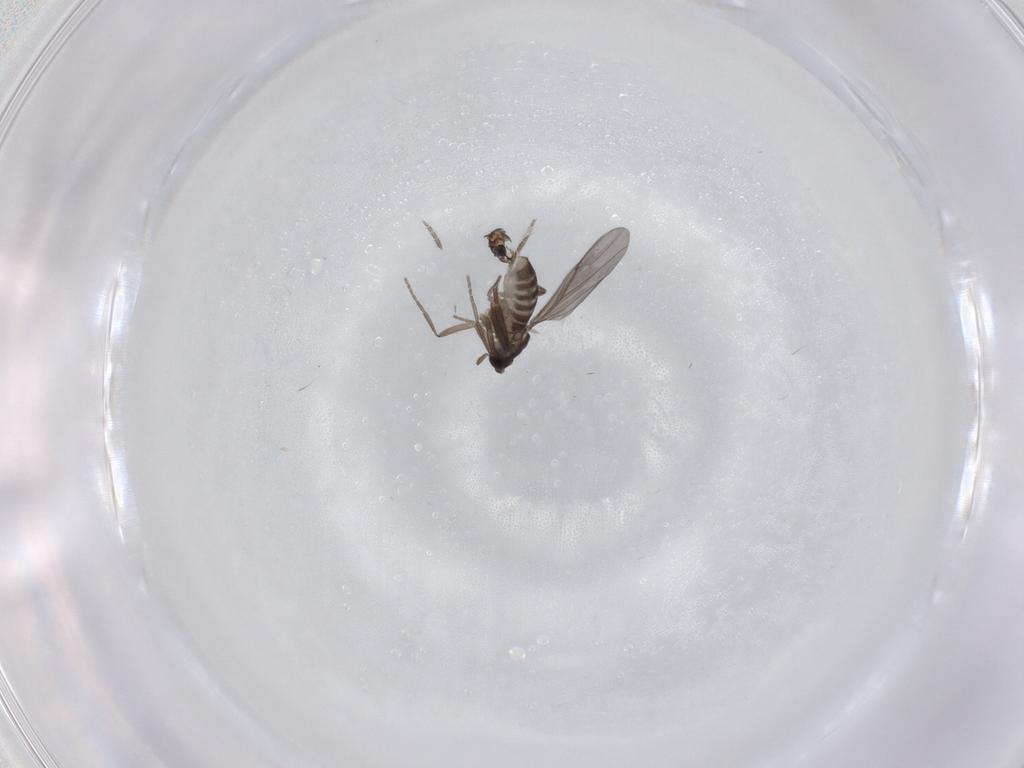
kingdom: Animalia
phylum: Arthropoda
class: Insecta
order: Diptera
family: Phoridae
